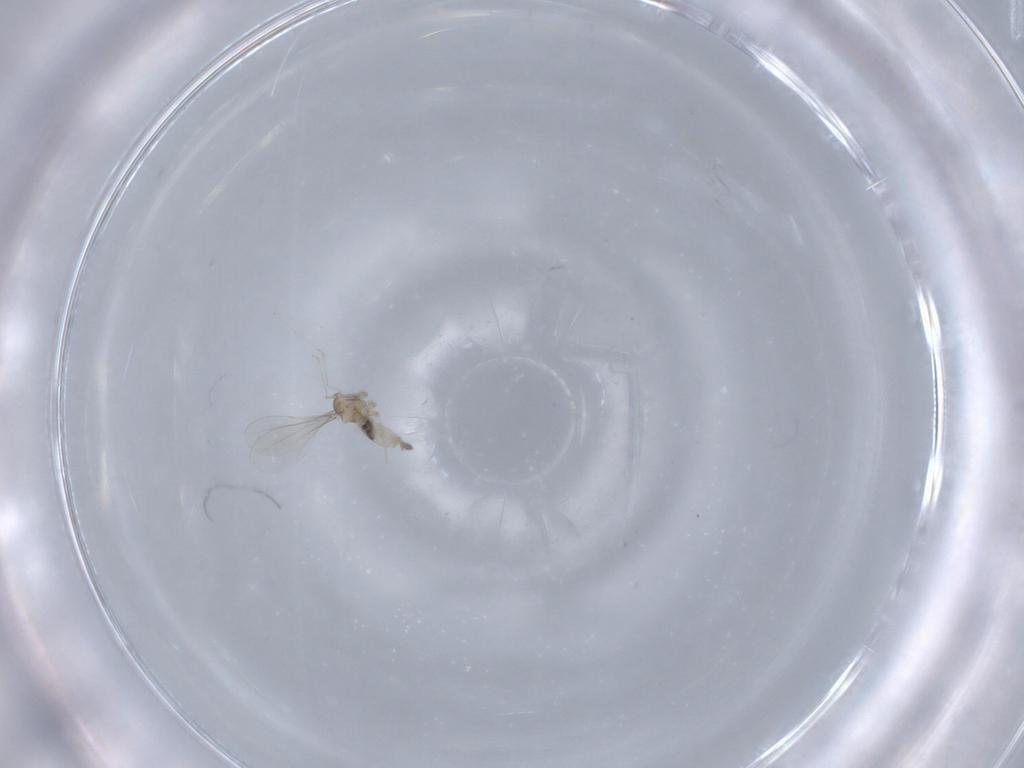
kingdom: Animalia
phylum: Arthropoda
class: Insecta
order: Diptera
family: Cecidomyiidae
